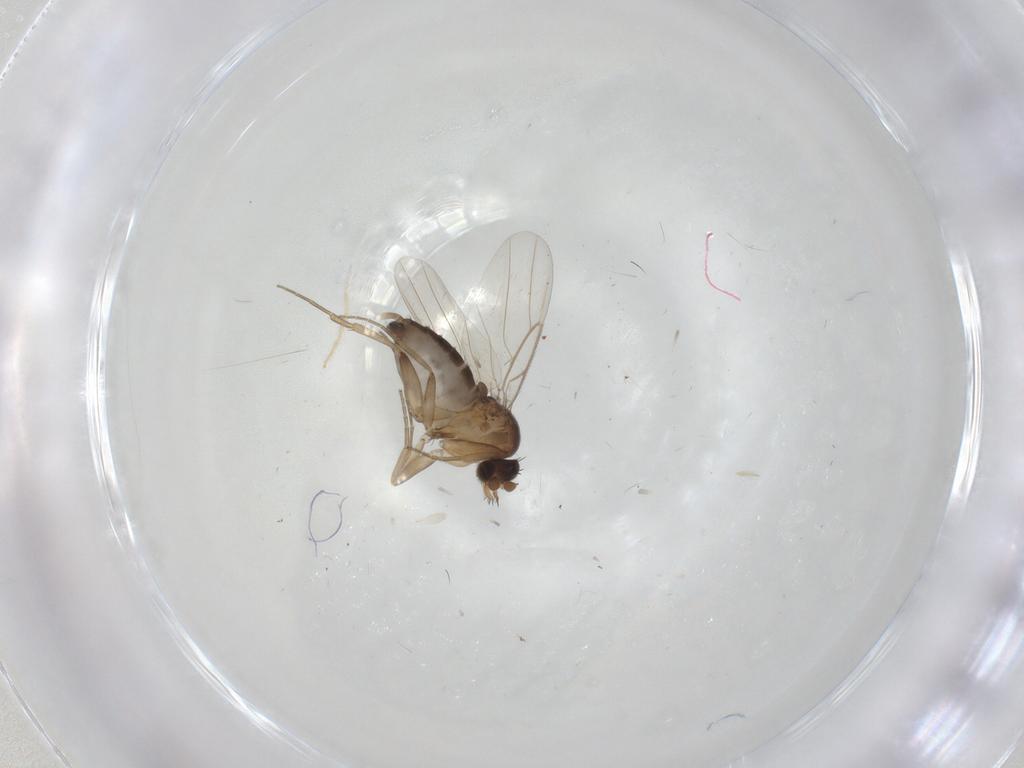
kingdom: Animalia
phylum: Arthropoda
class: Insecta
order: Diptera
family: Phoridae
